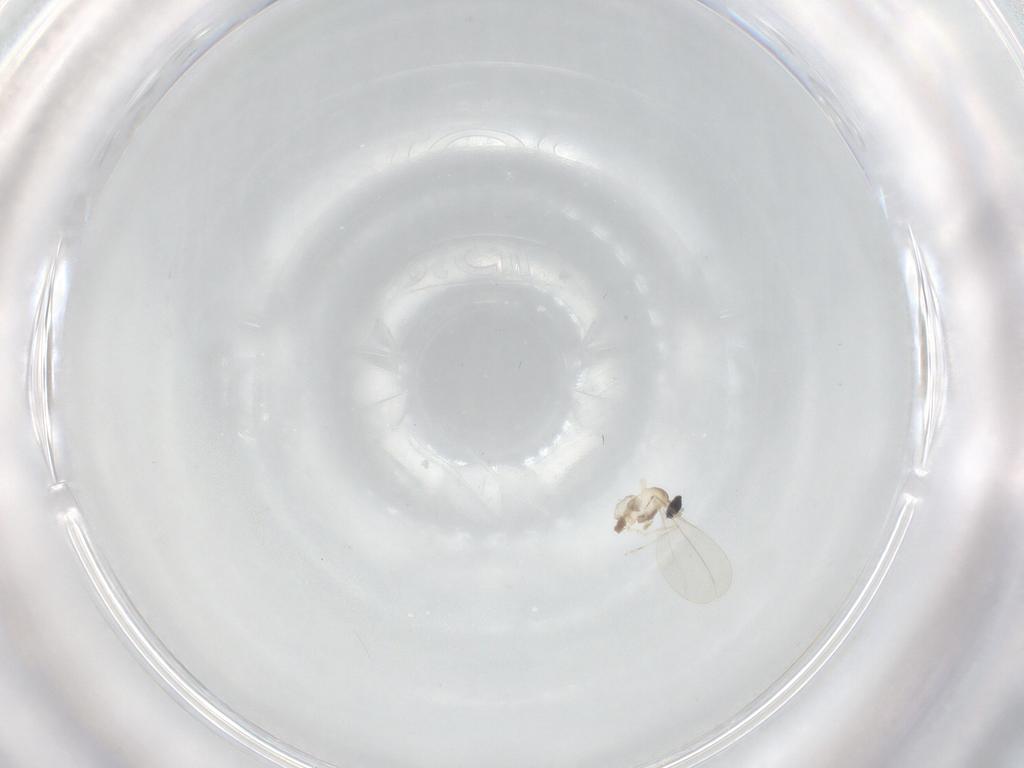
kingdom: Animalia
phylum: Arthropoda
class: Insecta
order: Diptera
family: Cecidomyiidae
